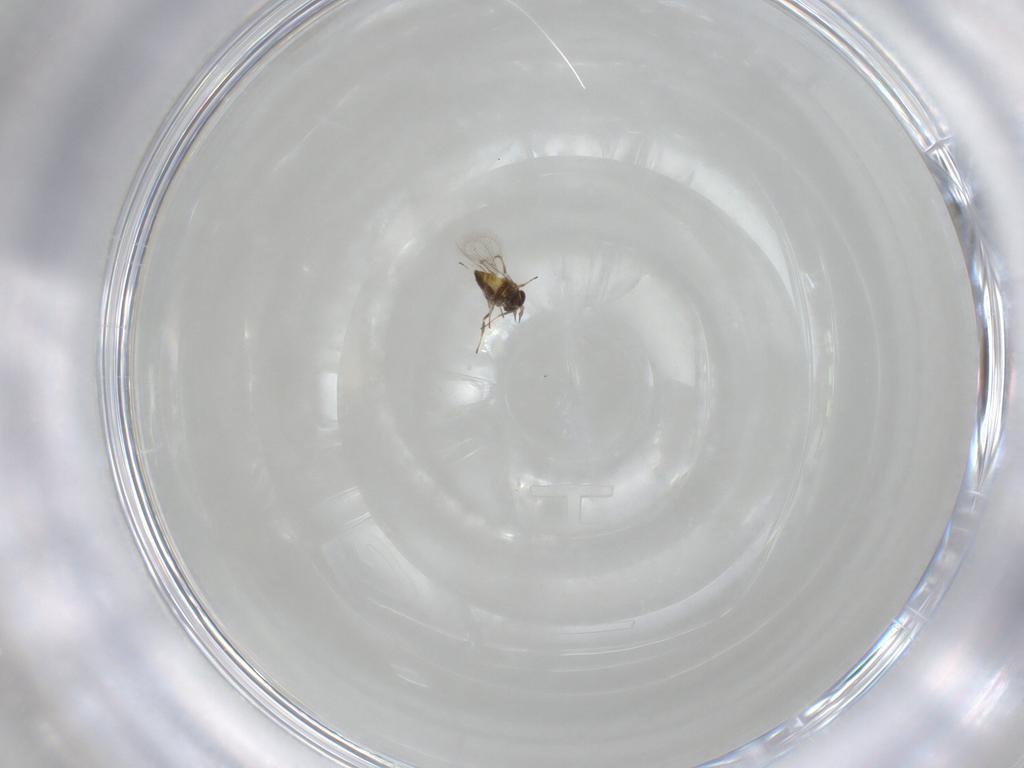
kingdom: Animalia
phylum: Arthropoda
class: Insecta
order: Hymenoptera
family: Trichogrammatidae
